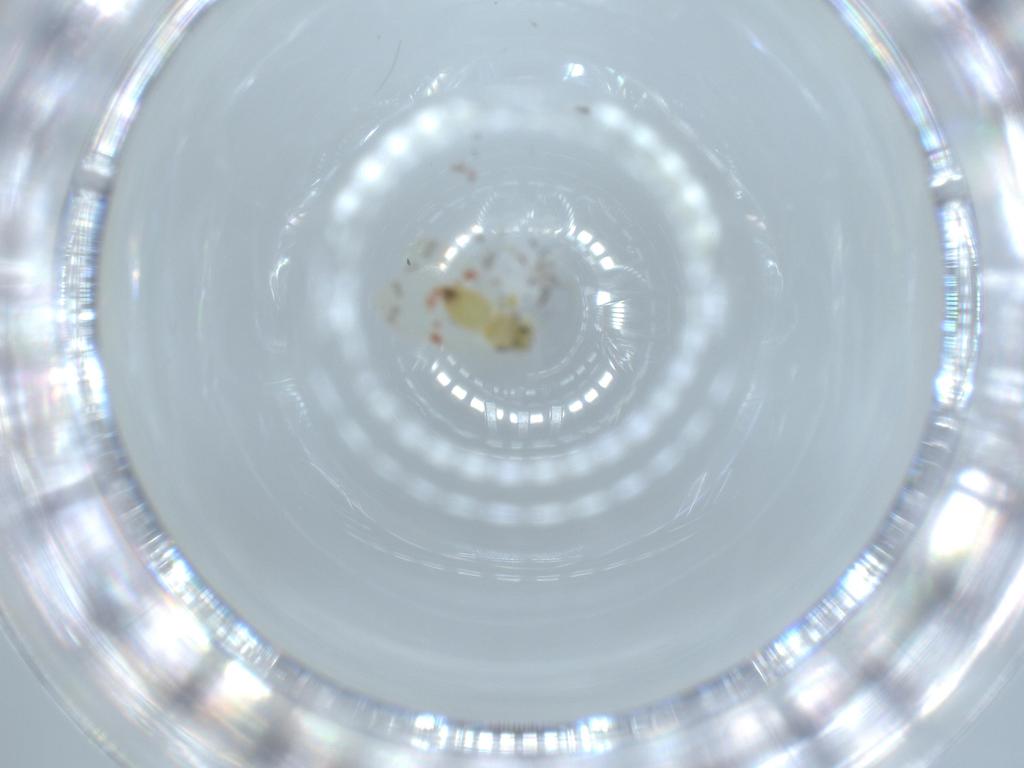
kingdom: Animalia
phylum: Arthropoda
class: Insecta
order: Hemiptera
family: Aleyrodidae
